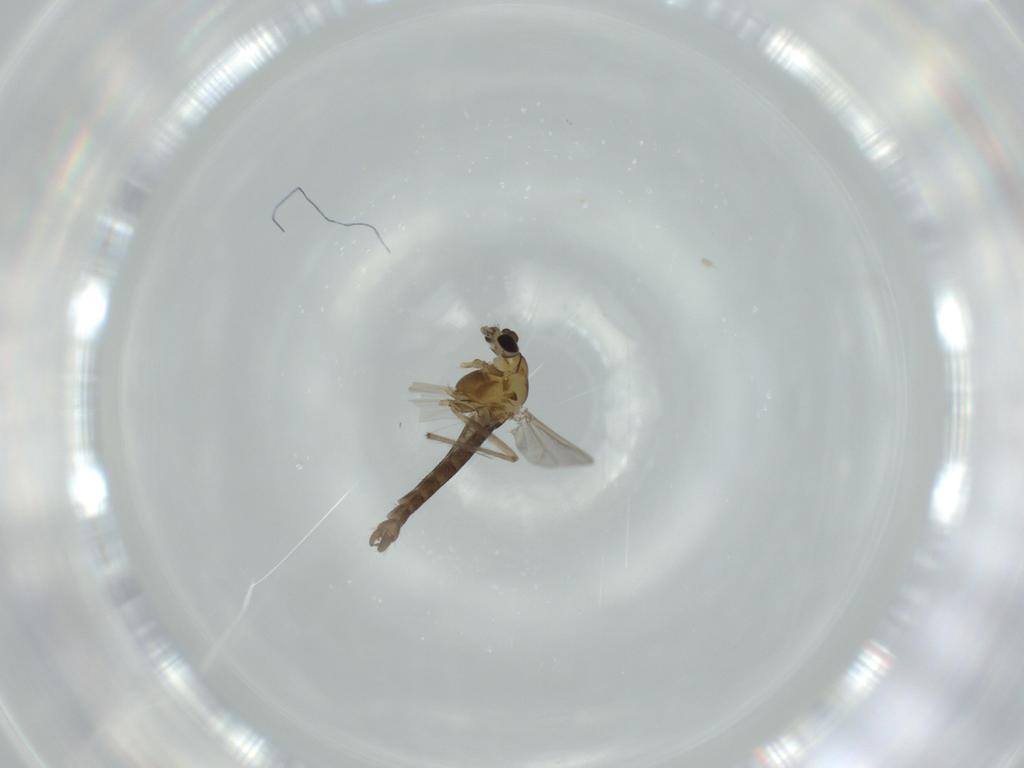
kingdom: Animalia
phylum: Arthropoda
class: Insecta
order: Diptera
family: Chironomidae
